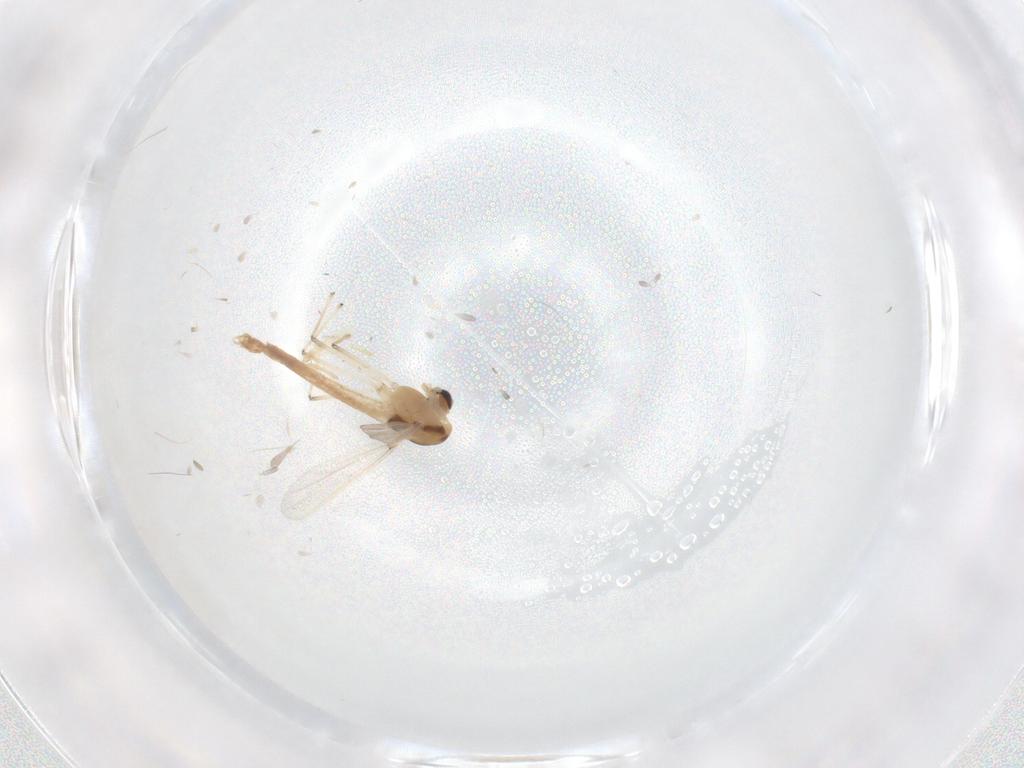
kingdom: Animalia
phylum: Arthropoda
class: Insecta
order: Diptera
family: Chironomidae
